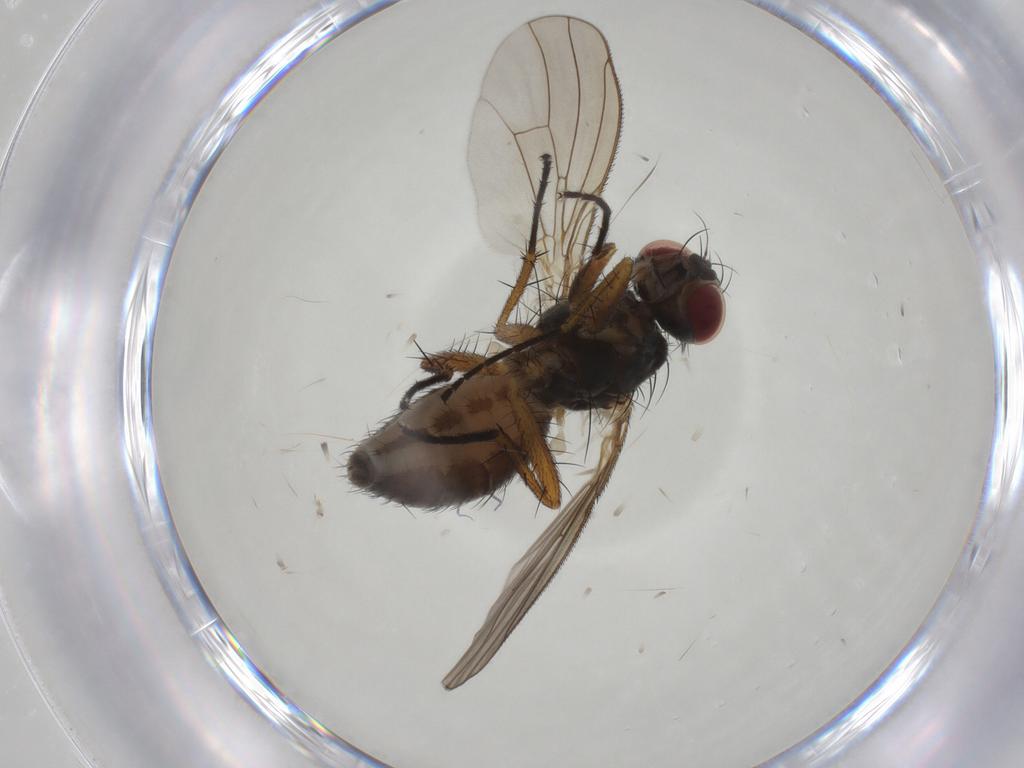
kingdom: Animalia
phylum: Arthropoda
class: Insecta
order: Diptera
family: Muscidae
